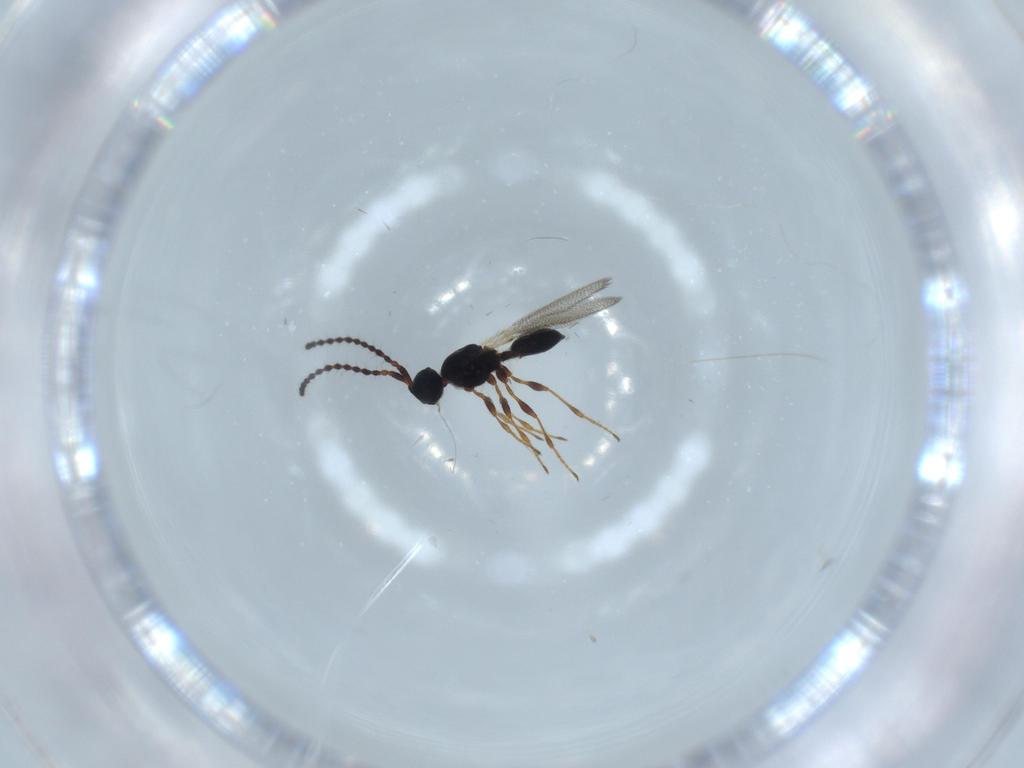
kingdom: Animalia
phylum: Arthropoda
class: Insecta
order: Hymenoptera
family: Diapriidae
